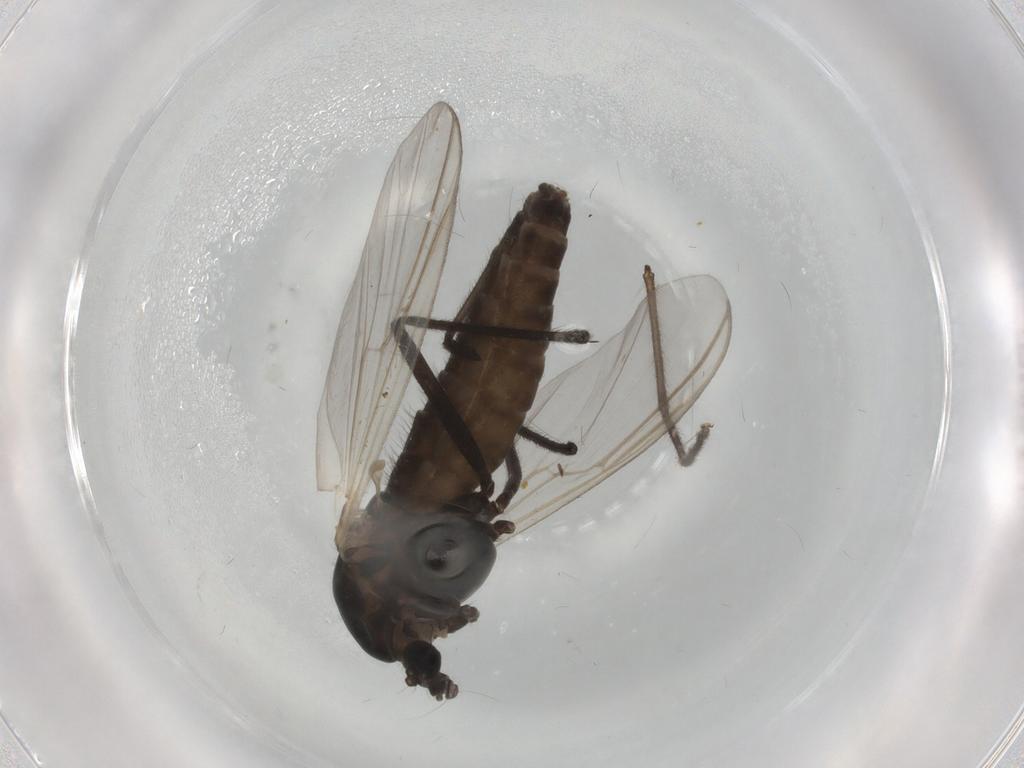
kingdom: Animalia
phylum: Arthropoda
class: Insecta
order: Diptera
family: Chironomidae
